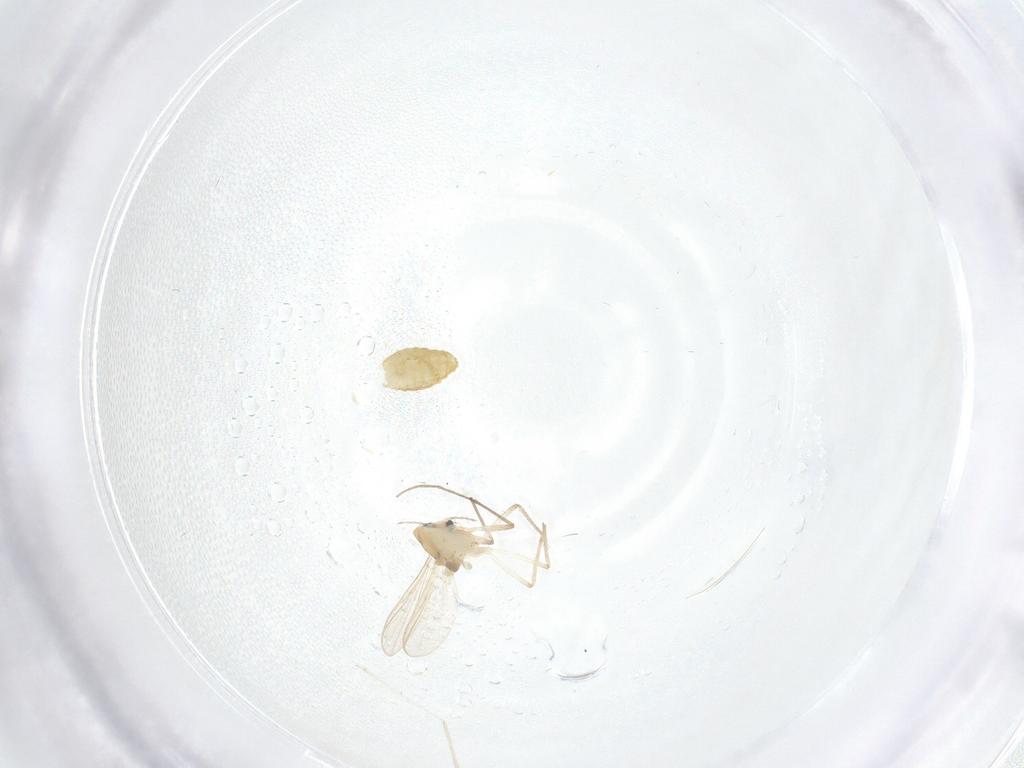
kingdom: Animalia
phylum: Arthropoda
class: Insecta
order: Diptera
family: Chironomidae
